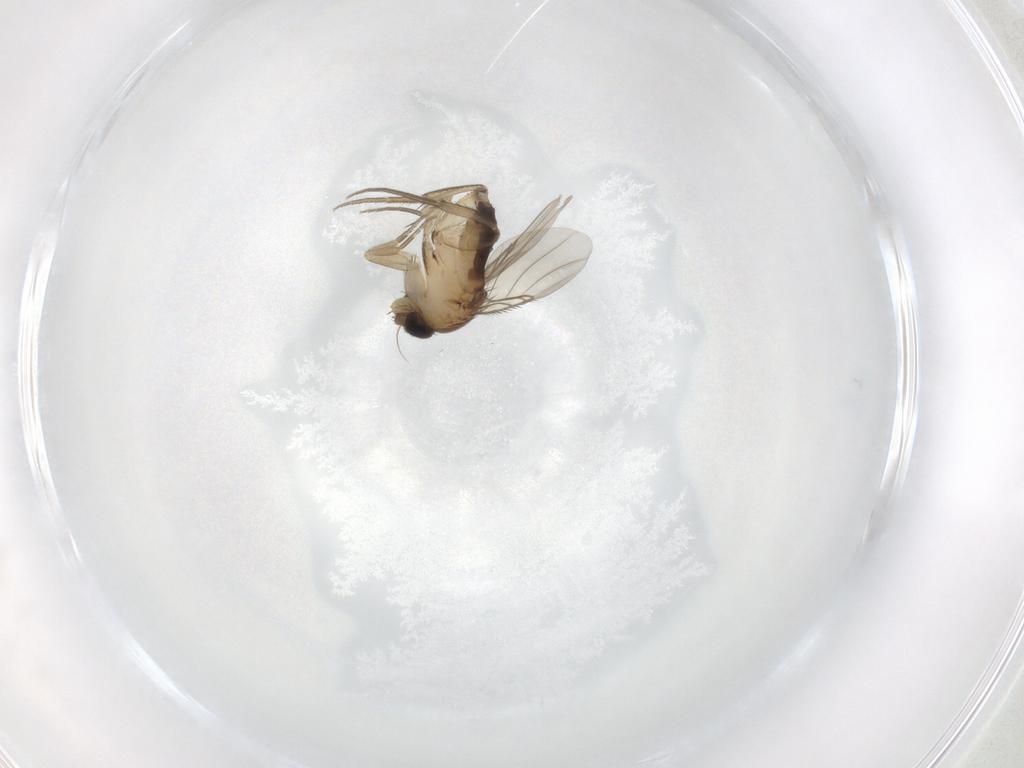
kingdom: Animalia
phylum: Arthropoda
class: Insecta
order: Diptera
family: Phoridae
